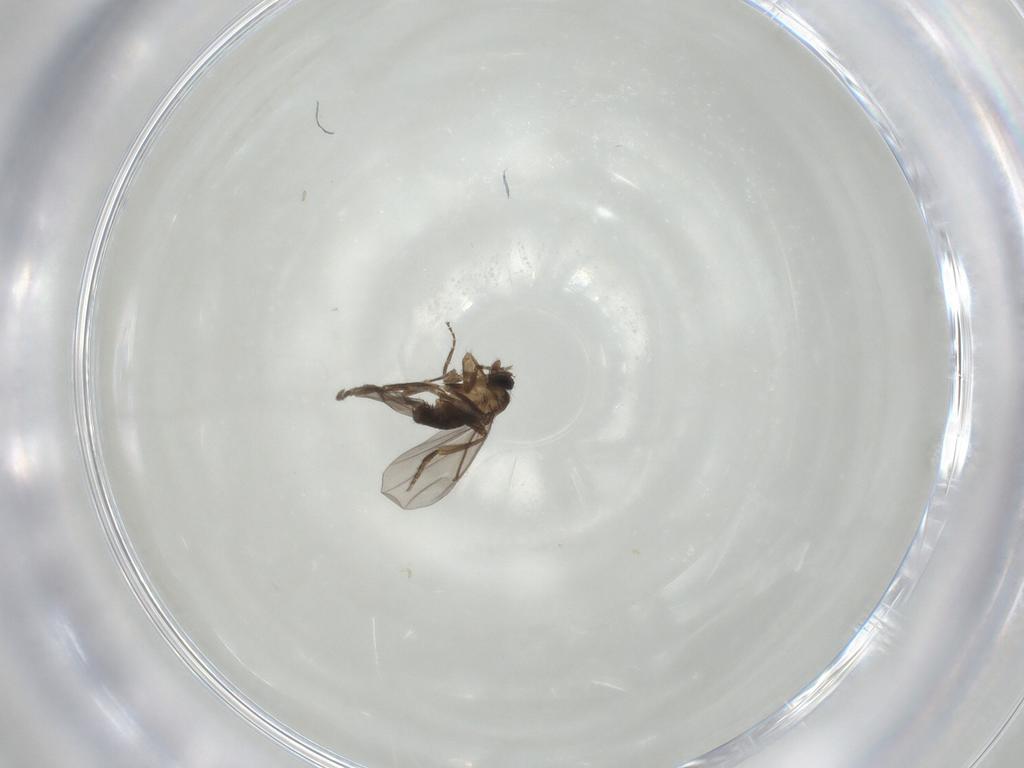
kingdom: Animalia
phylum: Arthropoda
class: Insecta
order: Diptera
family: Phoridae
